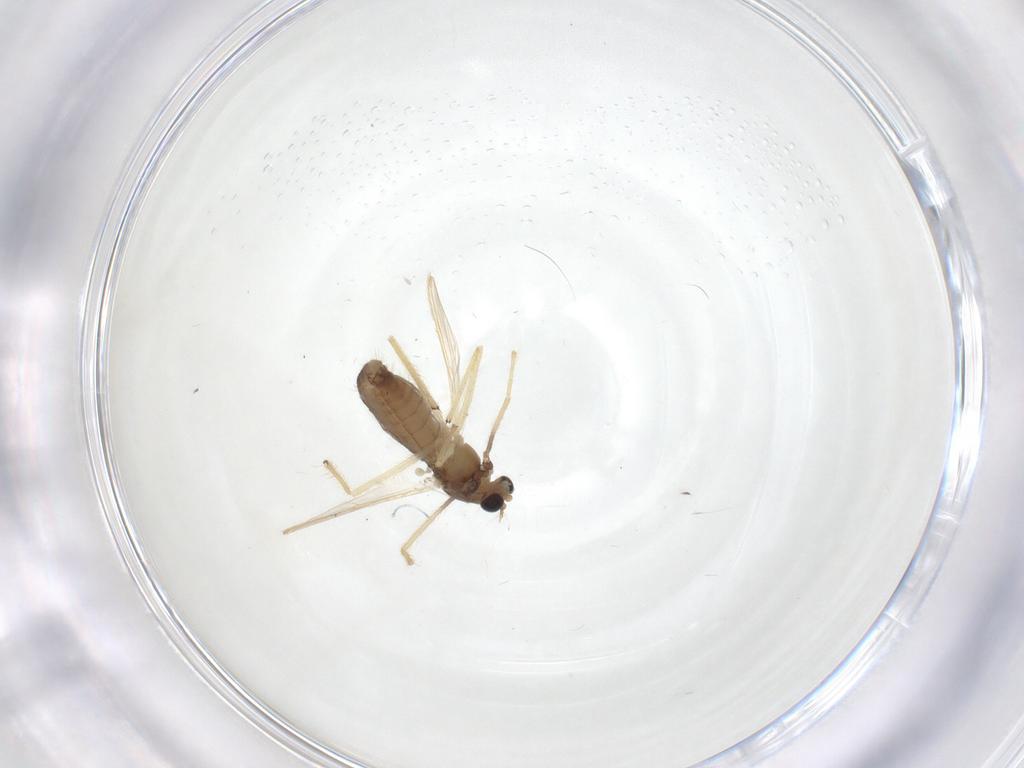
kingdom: Animalia
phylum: Arthropoda
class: Insecta
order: Diptera
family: Chironomidae
